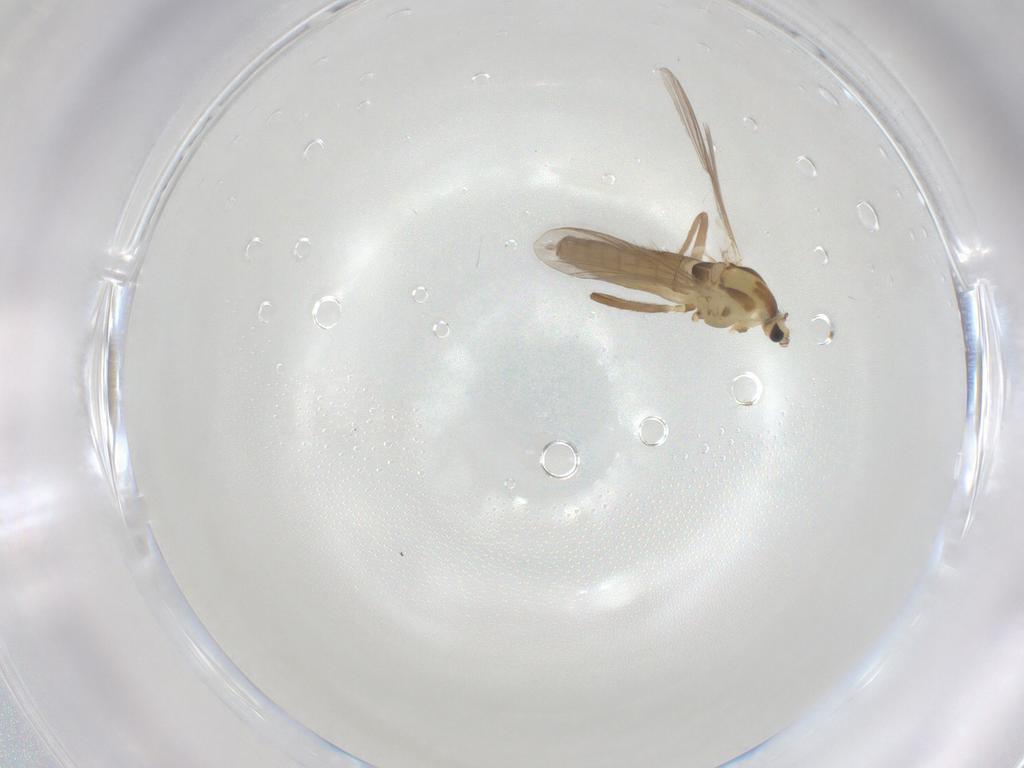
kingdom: Animalia
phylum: Arthropoda
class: Insecta
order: Diptera
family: Chironomidae
